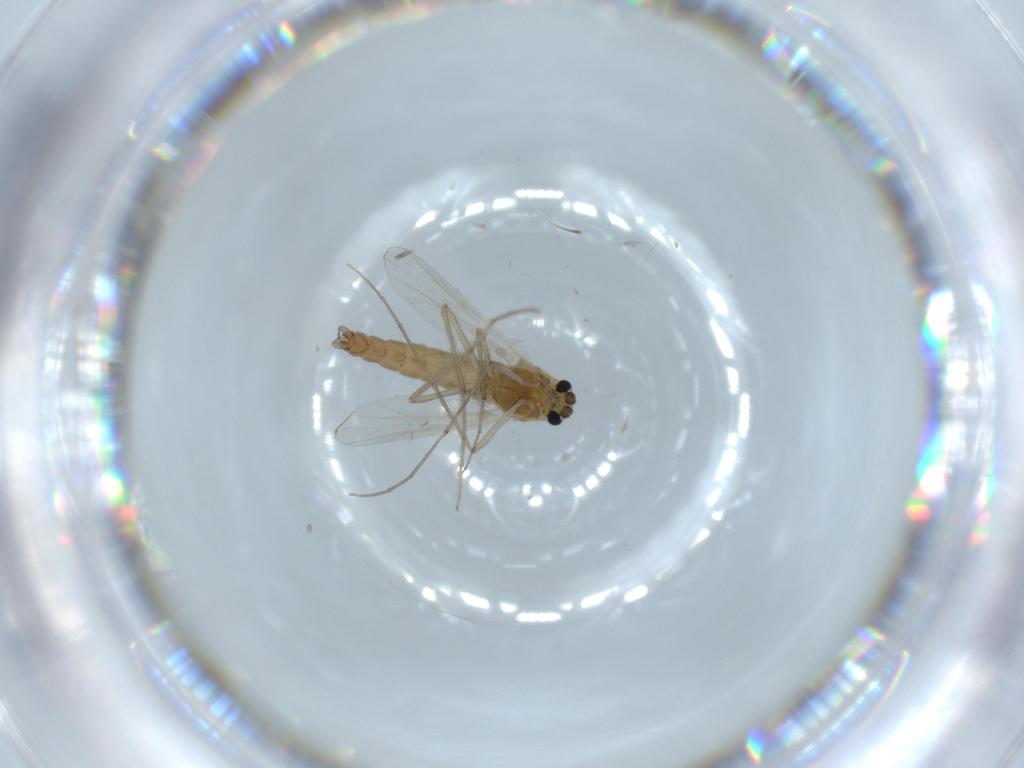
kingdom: Animalia
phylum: Arthropoda
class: Insecta
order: Diptera
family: Chironomidae
